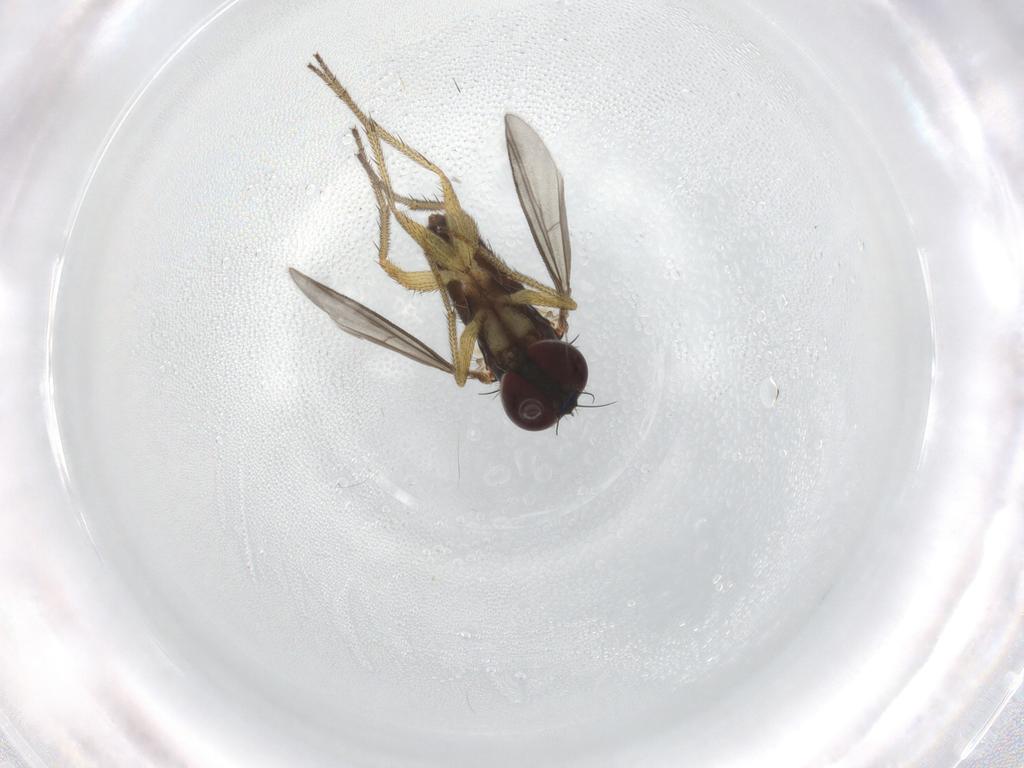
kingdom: Animalia
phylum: Arthropoda
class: Insecta
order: Diptera
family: Dolichopodidae
